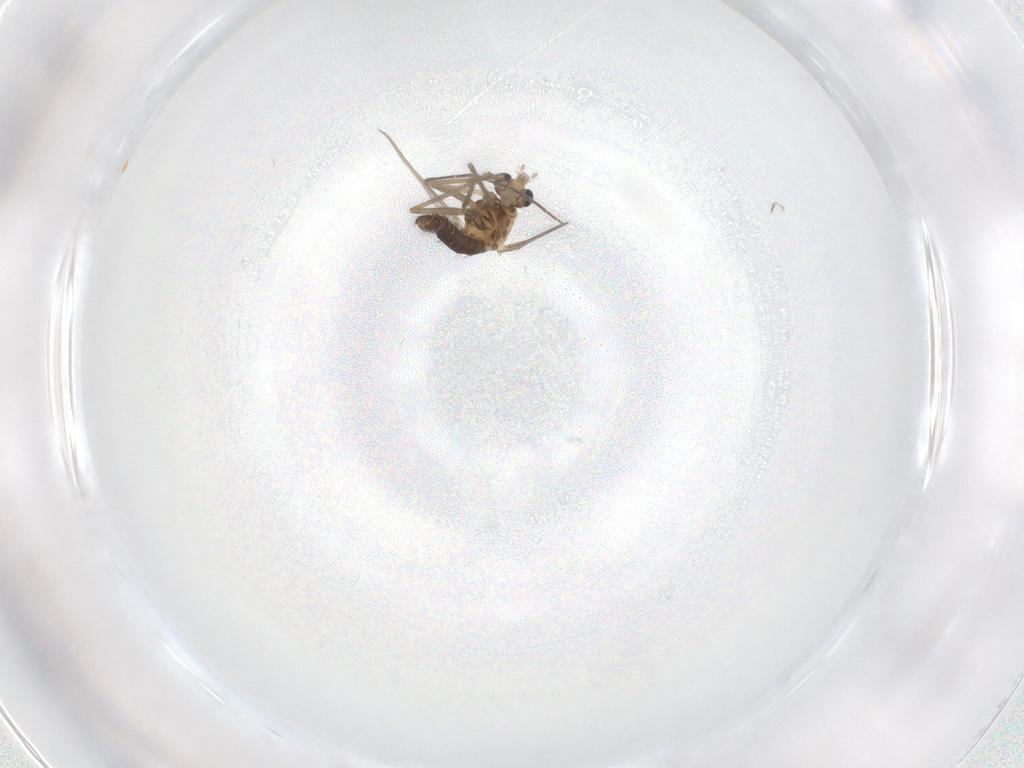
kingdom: Animalia
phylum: Arthropoda
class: Insecta
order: Diptera
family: Chironomidae
